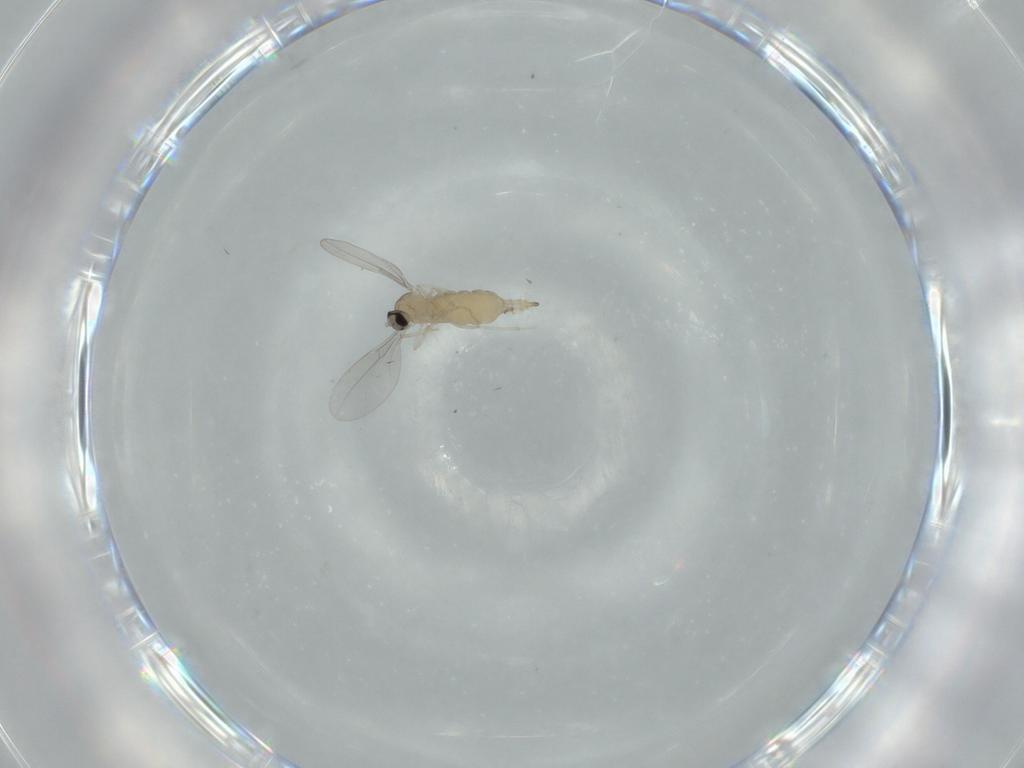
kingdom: Animalia
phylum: Arthropoda
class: Insecta
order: Diptera
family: Cecidomyiidae
